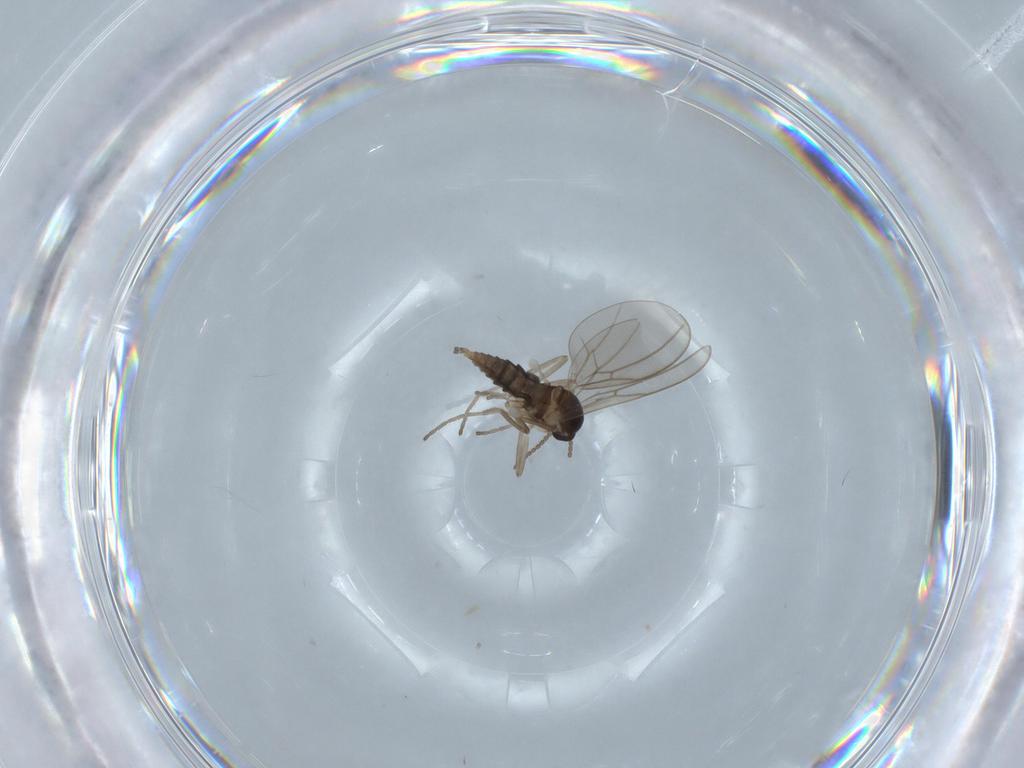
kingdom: Animalia
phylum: Arthropoda
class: Insecta
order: Diptera
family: Cecidomyiidae
